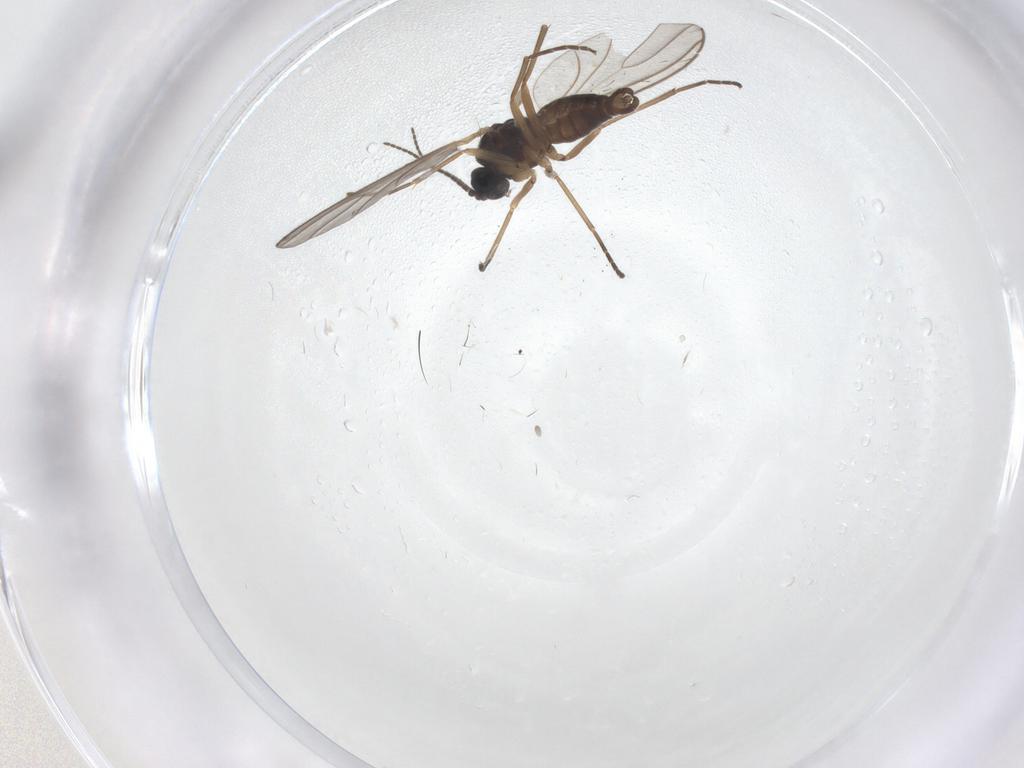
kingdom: Animalia
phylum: Arthropoda
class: Insecta
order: Diptera
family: Sciaridae
